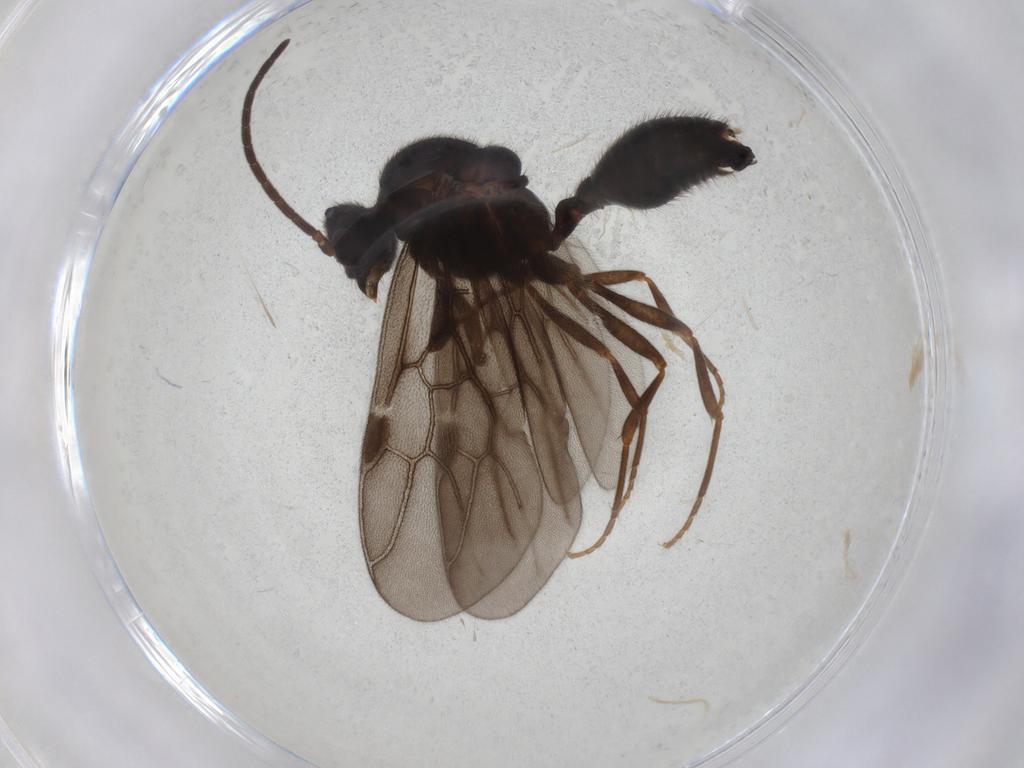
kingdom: Animalia
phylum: Arthropoda
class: Insecta
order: Hymenoptera
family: Formicidae
